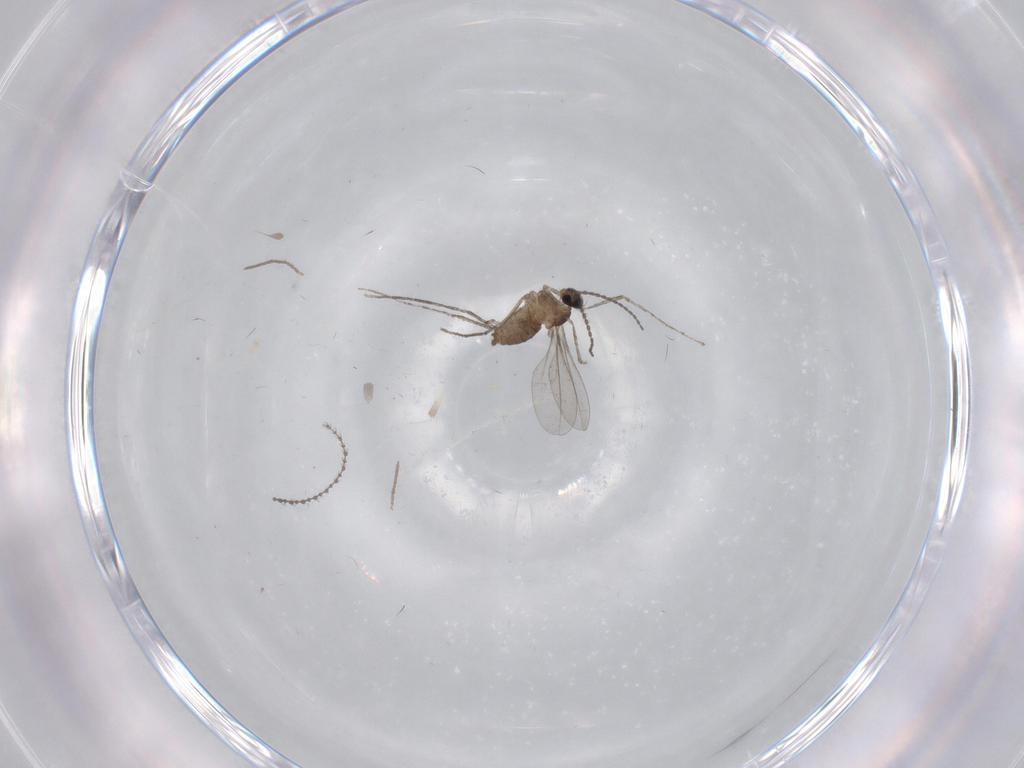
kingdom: Animalia
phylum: Arthropoda
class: Insecta
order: Diptera
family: Cecidomyiidae
